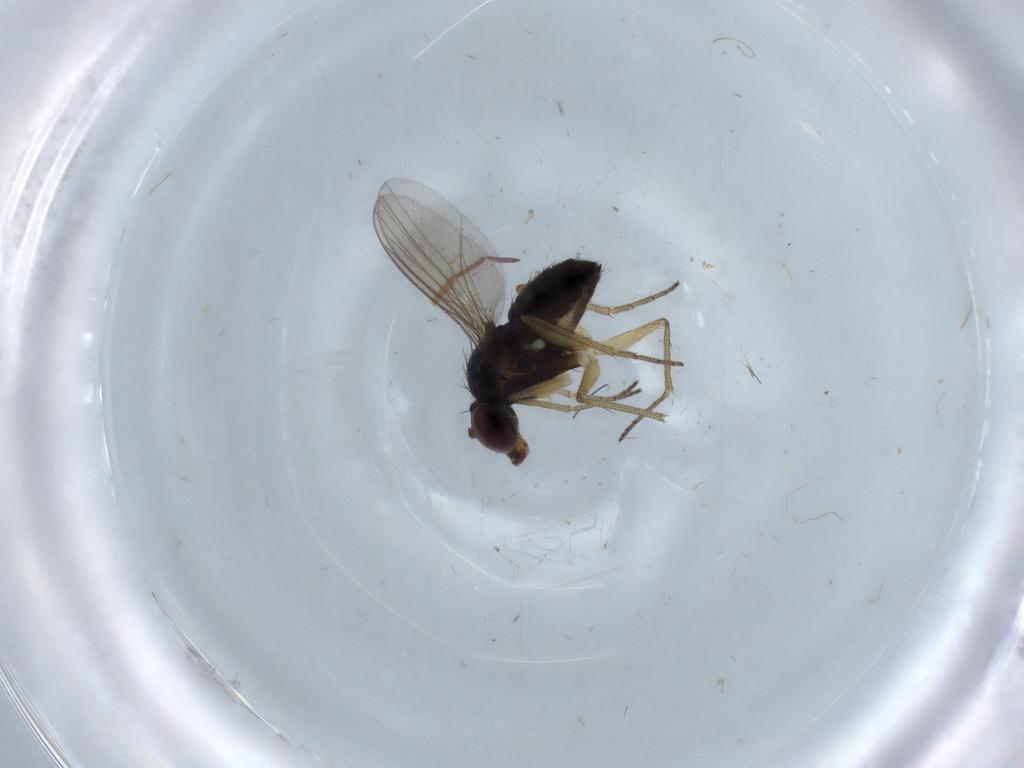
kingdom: Animalia
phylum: Arthropoda
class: Insecta
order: Diptera
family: Dolichopodidae
